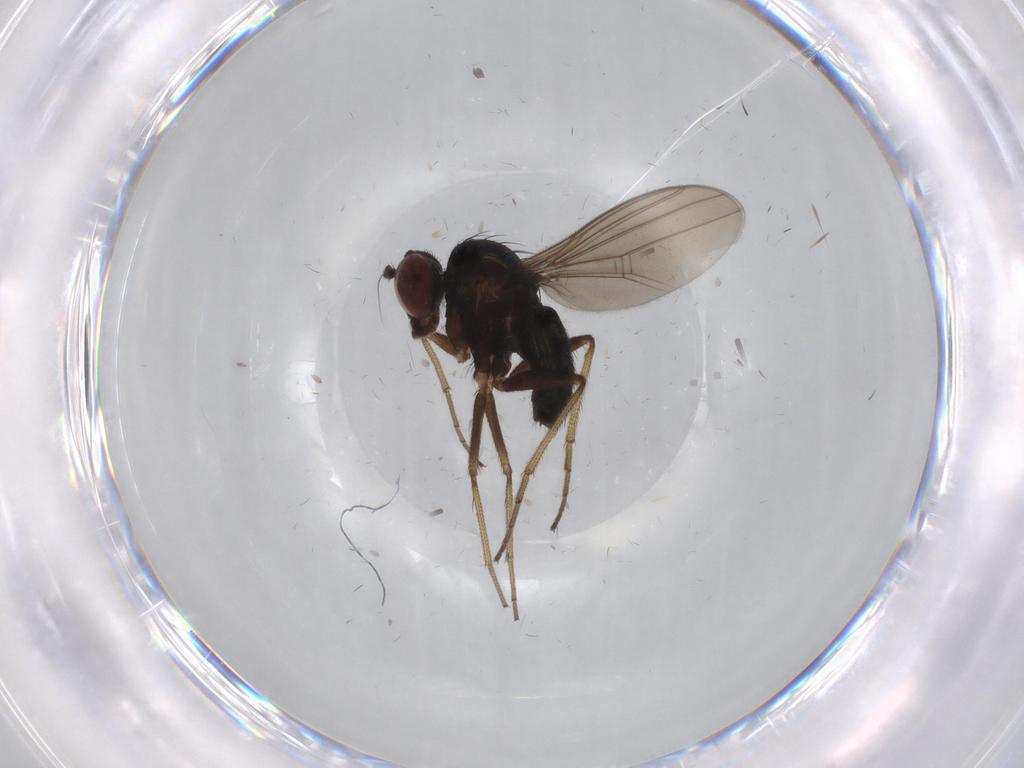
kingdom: Animalia
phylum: Arthropoda
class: Insecta
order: Diptera
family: Dolichopodidae
